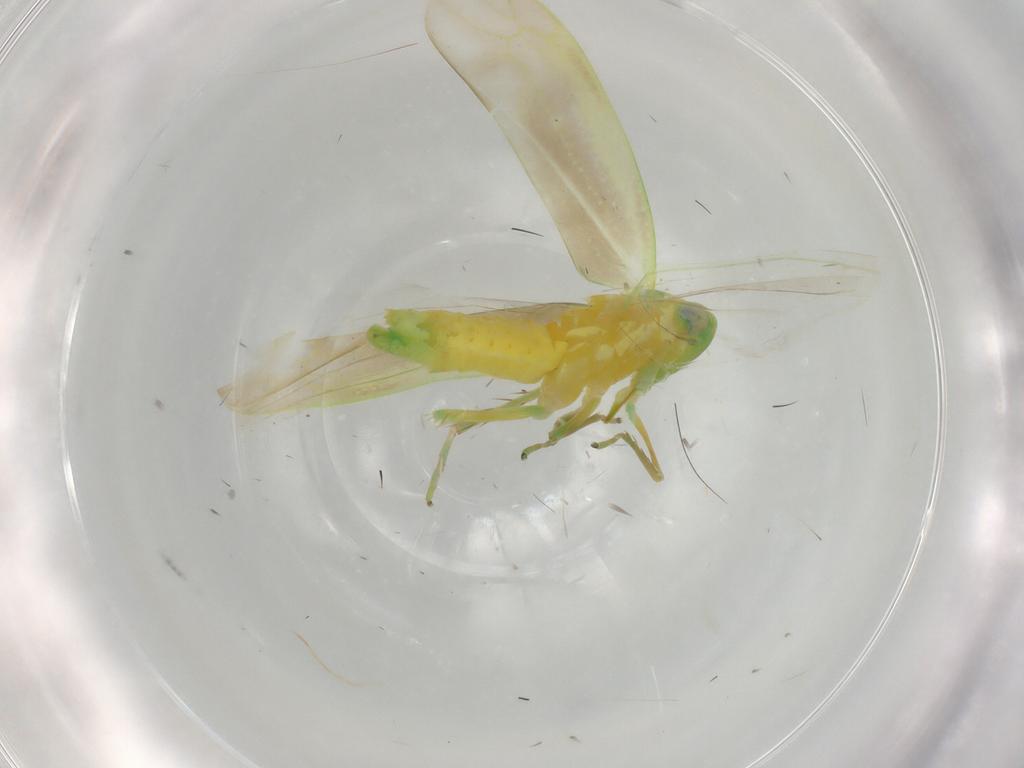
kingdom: Animalia
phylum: Arthropoda
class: Insecta
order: Hemiptera
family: Cicadellidae
